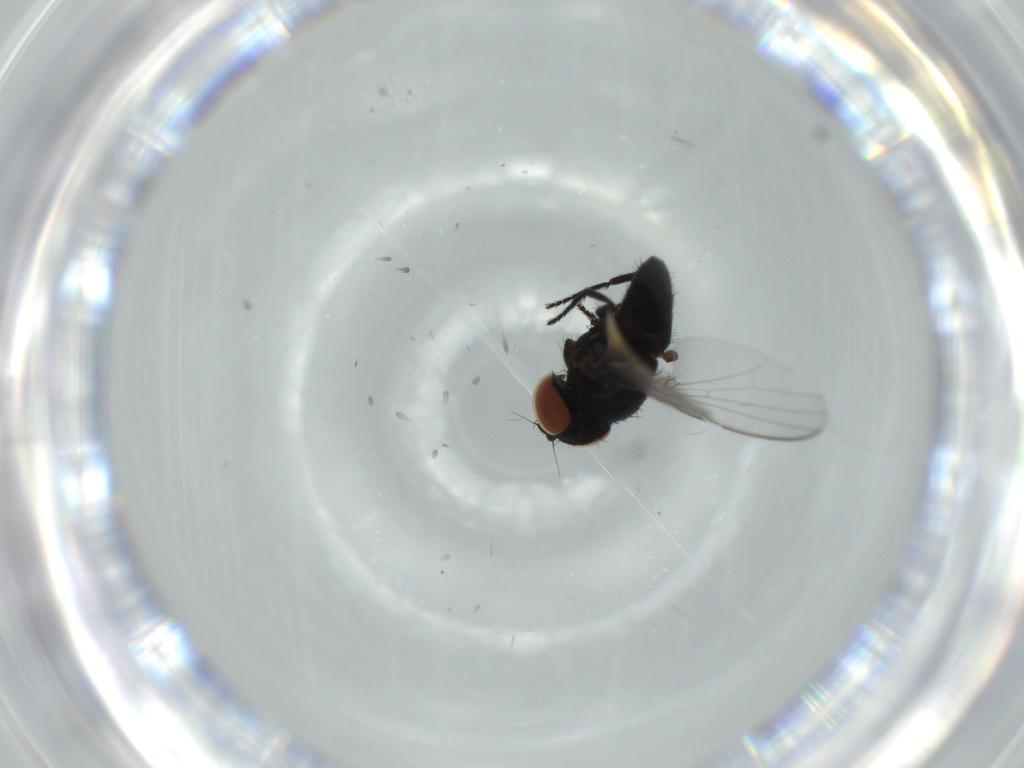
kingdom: Animalia
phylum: Arthropoda
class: Insecta
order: Diptera
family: Milichiidae
